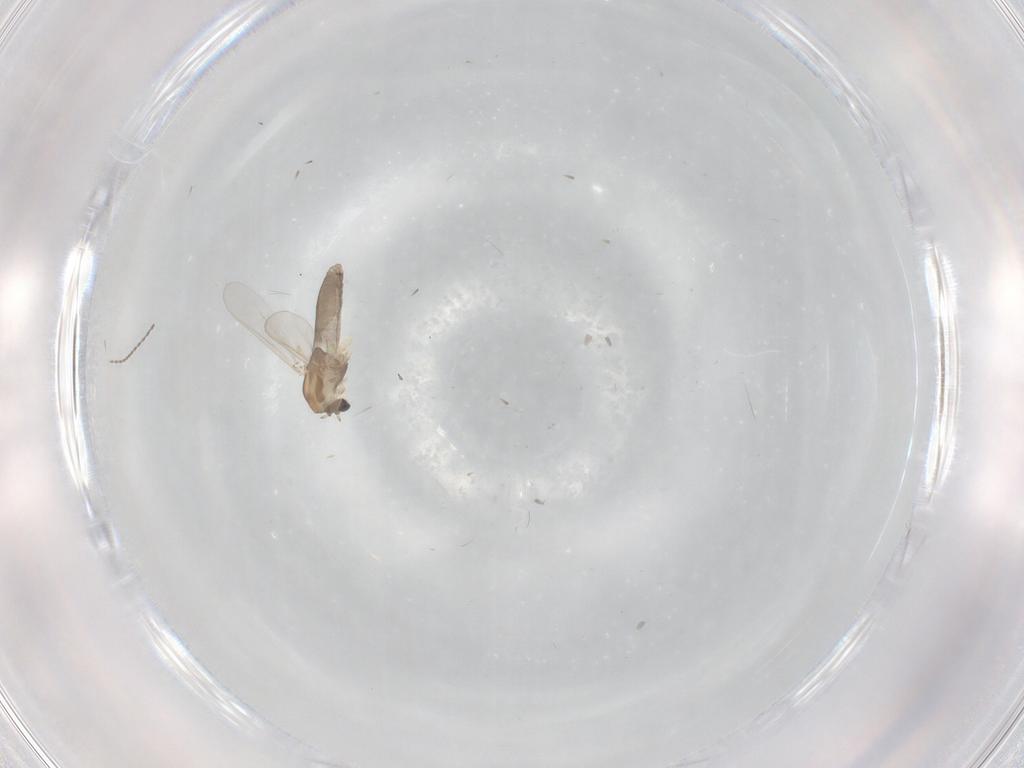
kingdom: Animalia
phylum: Arthropoda
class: Insecta
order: Diptera
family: Chironomidae
